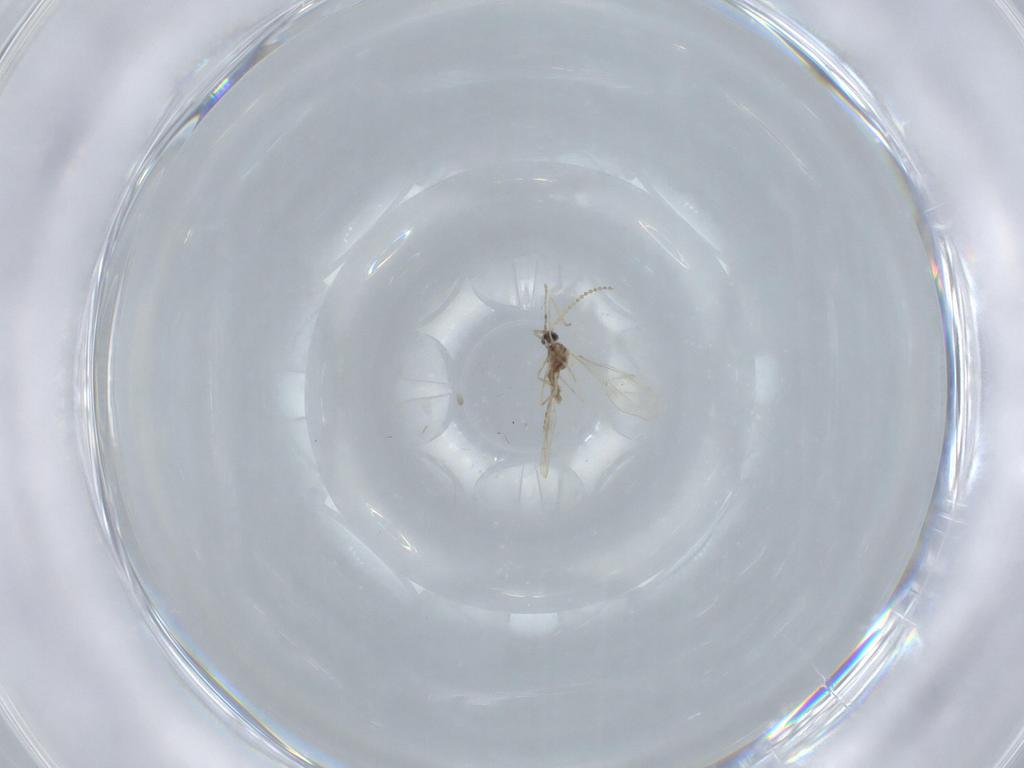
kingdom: Animalia
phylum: Arthropoda
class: Insecta
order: Diptera
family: Cecidomyiidae
